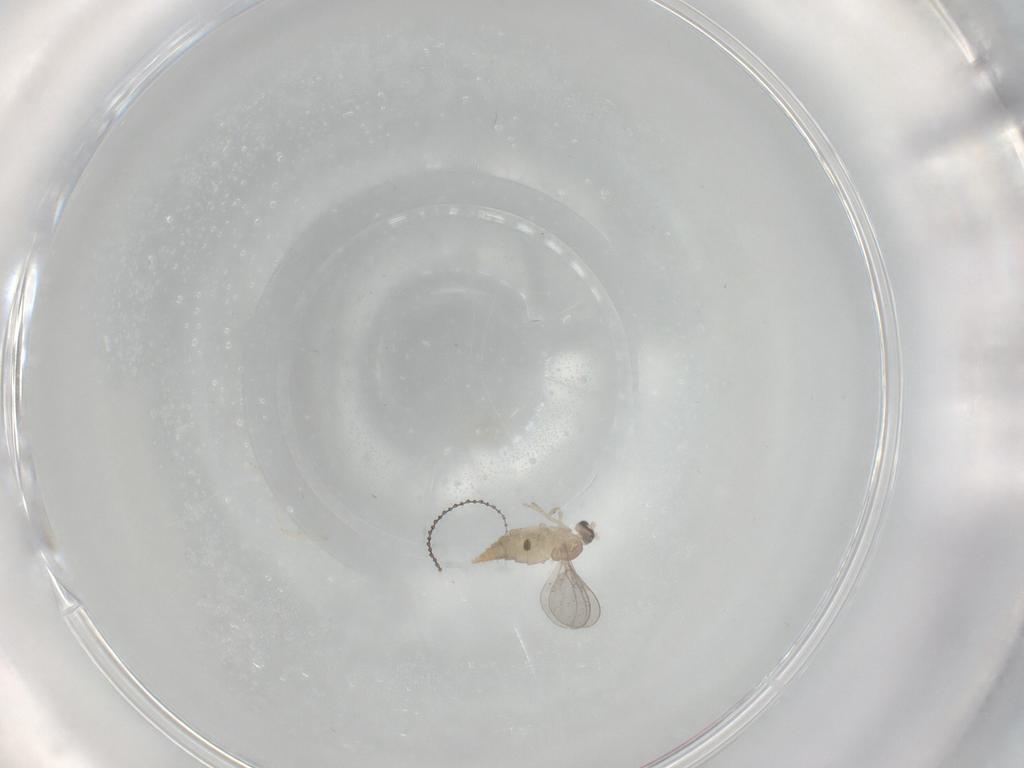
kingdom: Animalia
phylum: Arthropoda
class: Insecta
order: Diptera
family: Cecidomyiidae
